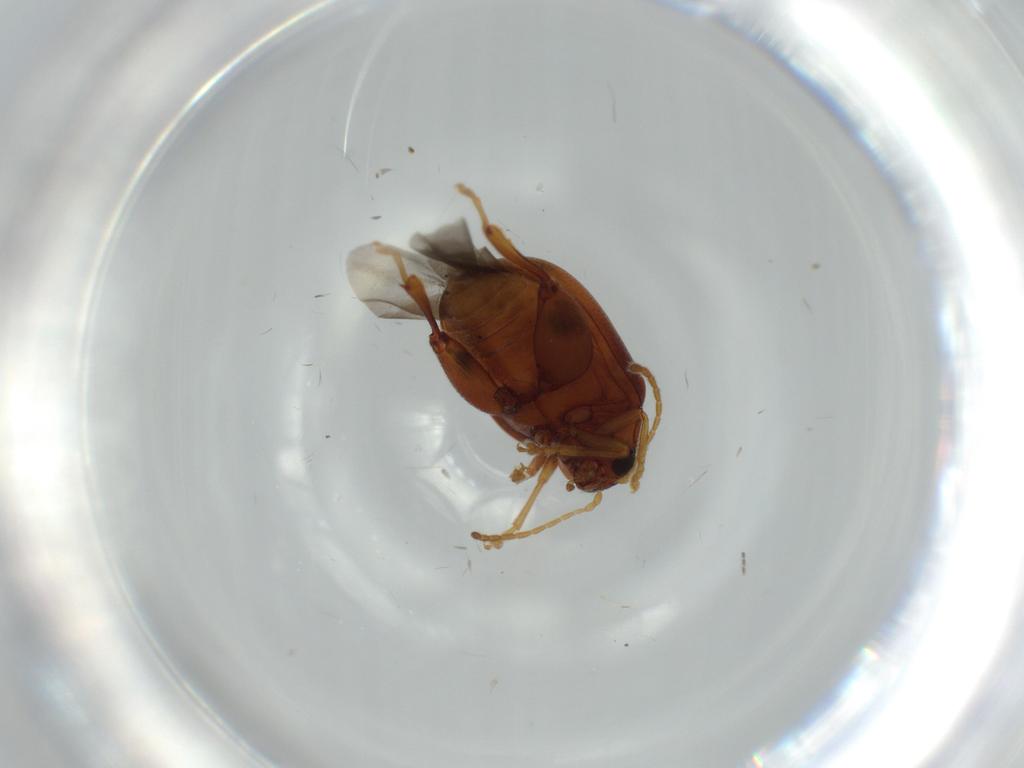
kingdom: Animalia
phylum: Arthropoda
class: Insecta
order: Coleoptera
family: Chrysomelidae
